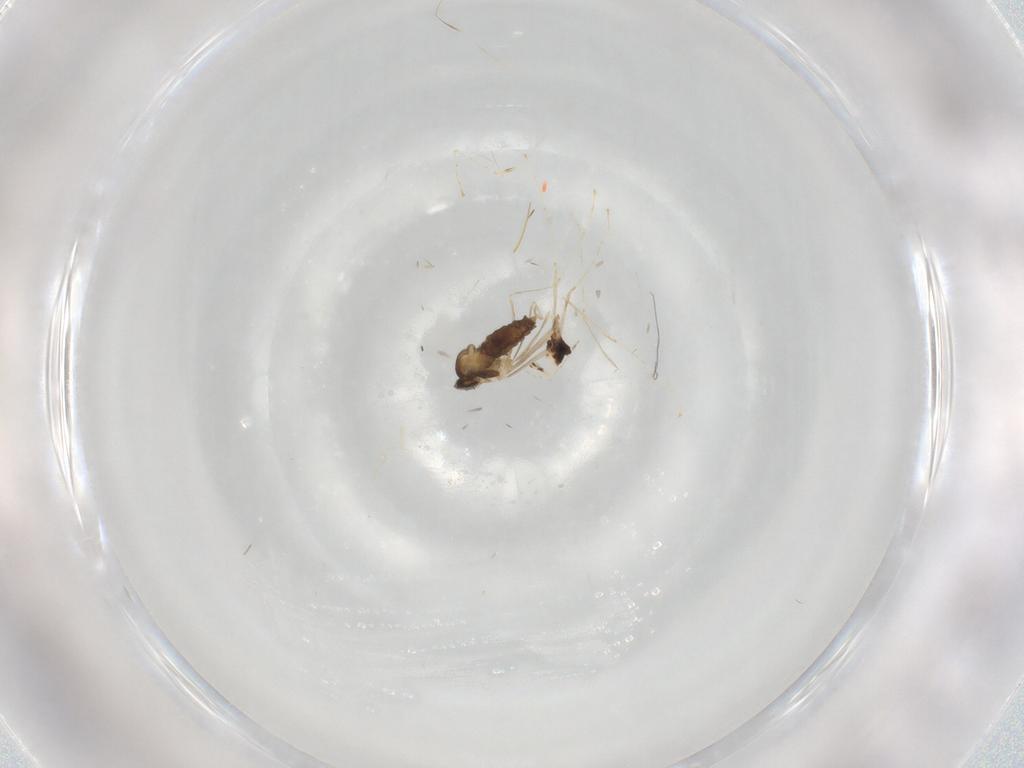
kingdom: Animalia
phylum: Arthropoda
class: Insecta
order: Diptera
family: Cecidomyiidae
